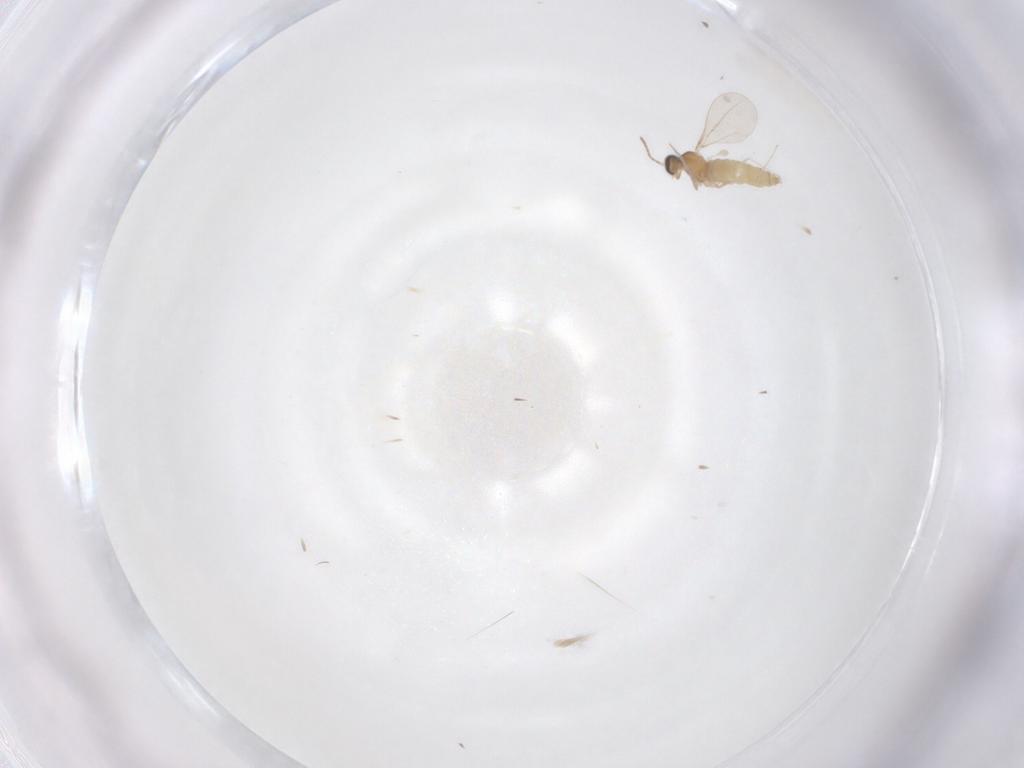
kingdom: Animalia
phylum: Arthropoda
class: Insecta
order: Diptera
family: Cecidomyiidae
